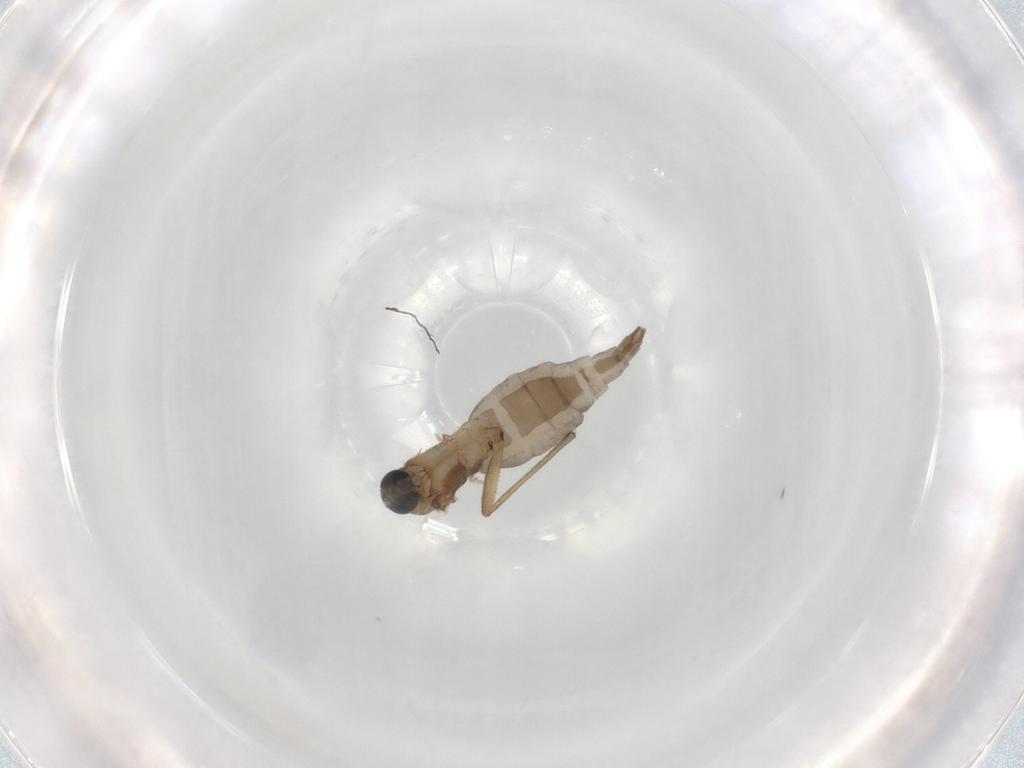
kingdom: Animalia
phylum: Arthropoda
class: Insecta
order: Diptera
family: Sciaridae
